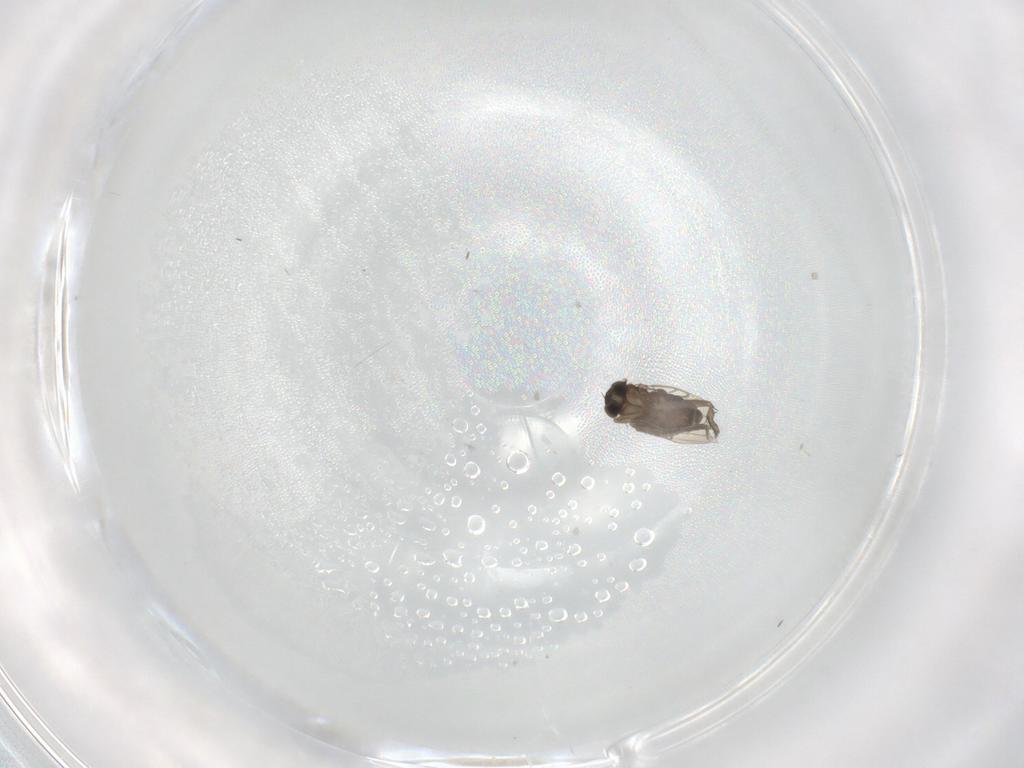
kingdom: Animalia
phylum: Arthropoda
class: Insecta
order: Diptera
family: Phoridae
